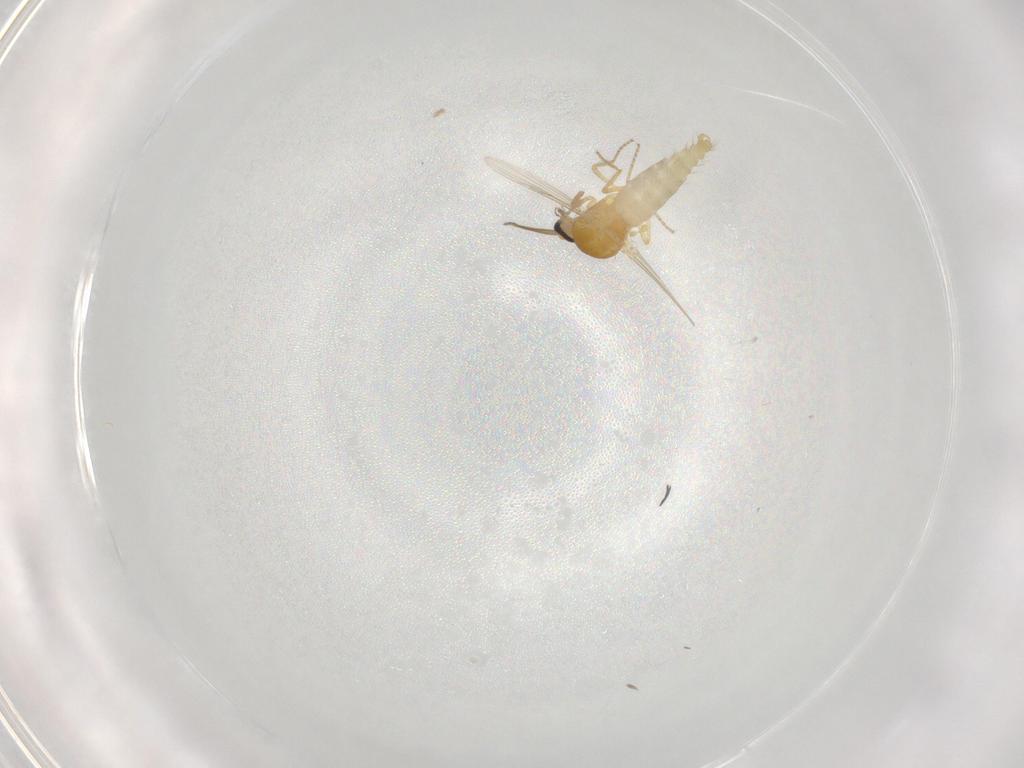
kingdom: Animalia
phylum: Arthropoda
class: Insecta
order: Diptera
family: Ceratopogonidae
